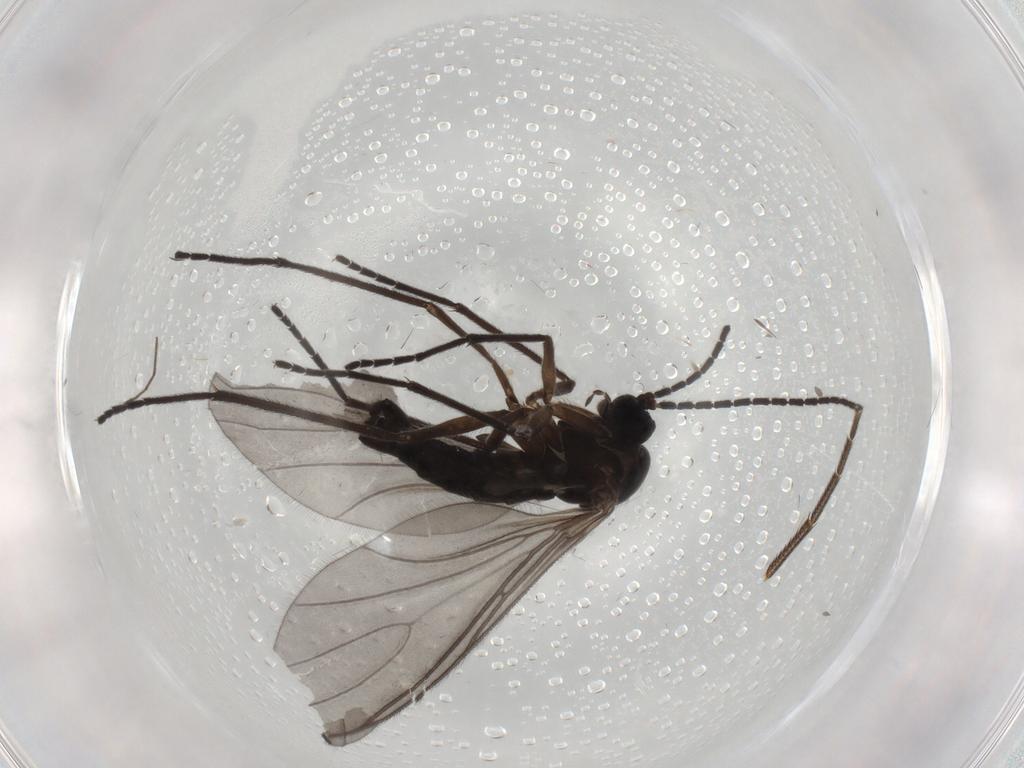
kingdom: Animalia
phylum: Arthropoda
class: Insecta
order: Diptera
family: Sciaridae
